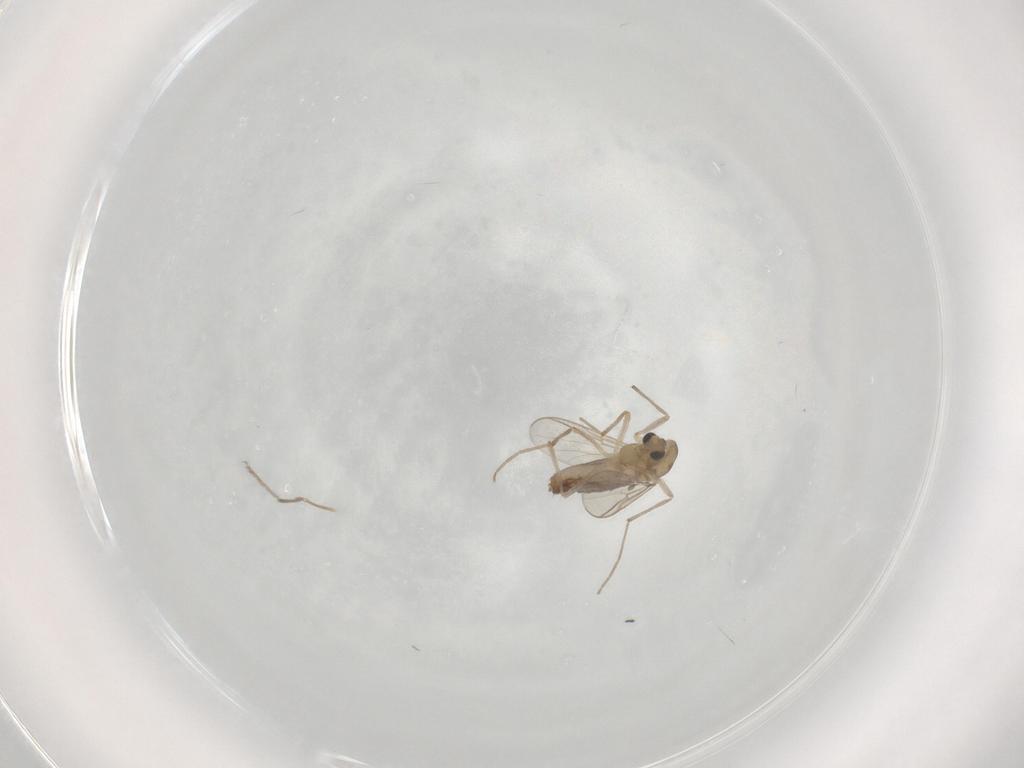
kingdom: Animalia
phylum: Arthropoda
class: Insecta
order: Diptera
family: Chironomidae
